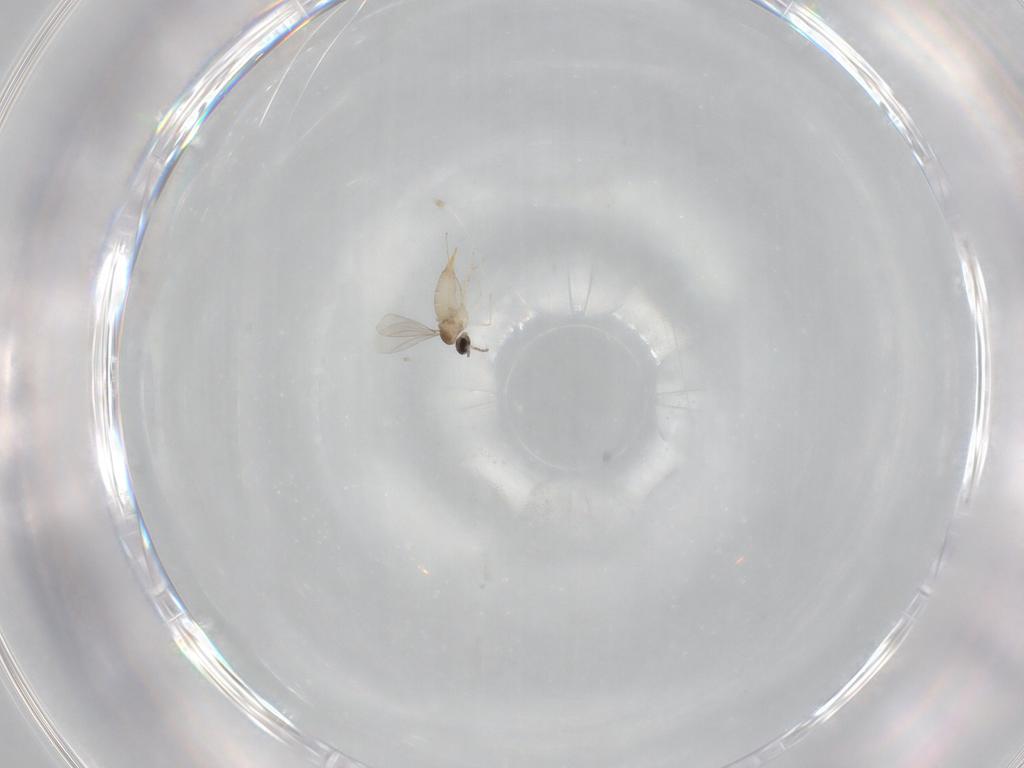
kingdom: Animalia
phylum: Arthropoda
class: Insecta
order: Diptera
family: Cecidomyiidae
